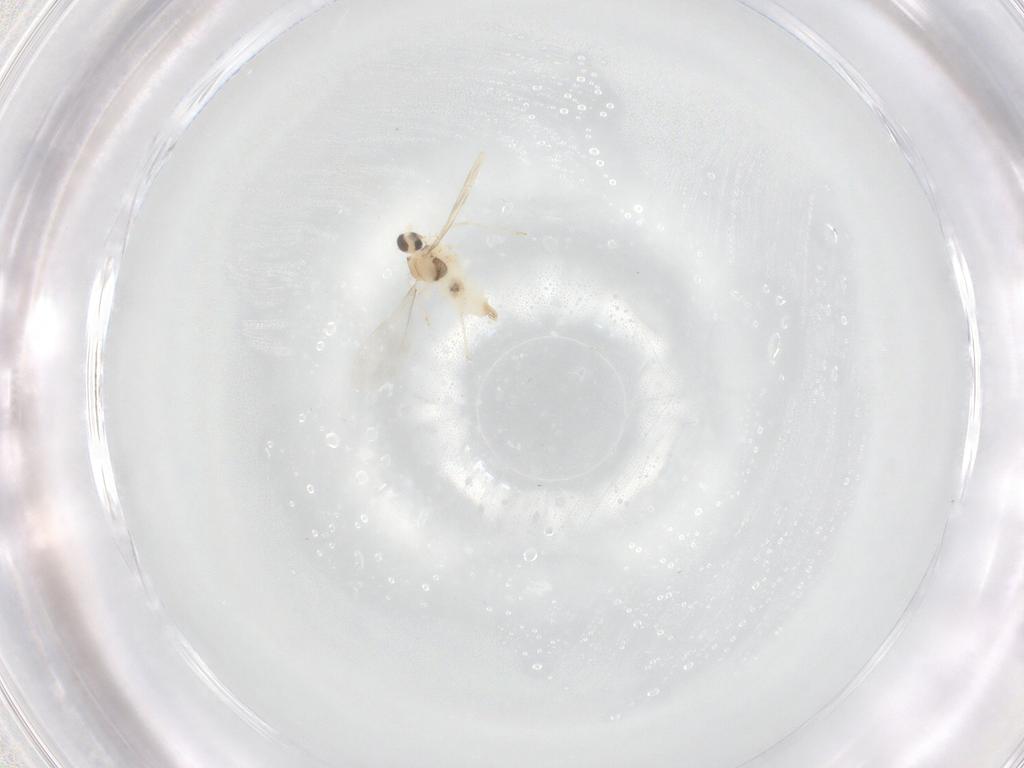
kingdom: Animalia
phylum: Arthropoda
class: Insecta
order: Diptera
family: Cecidomyiidae
